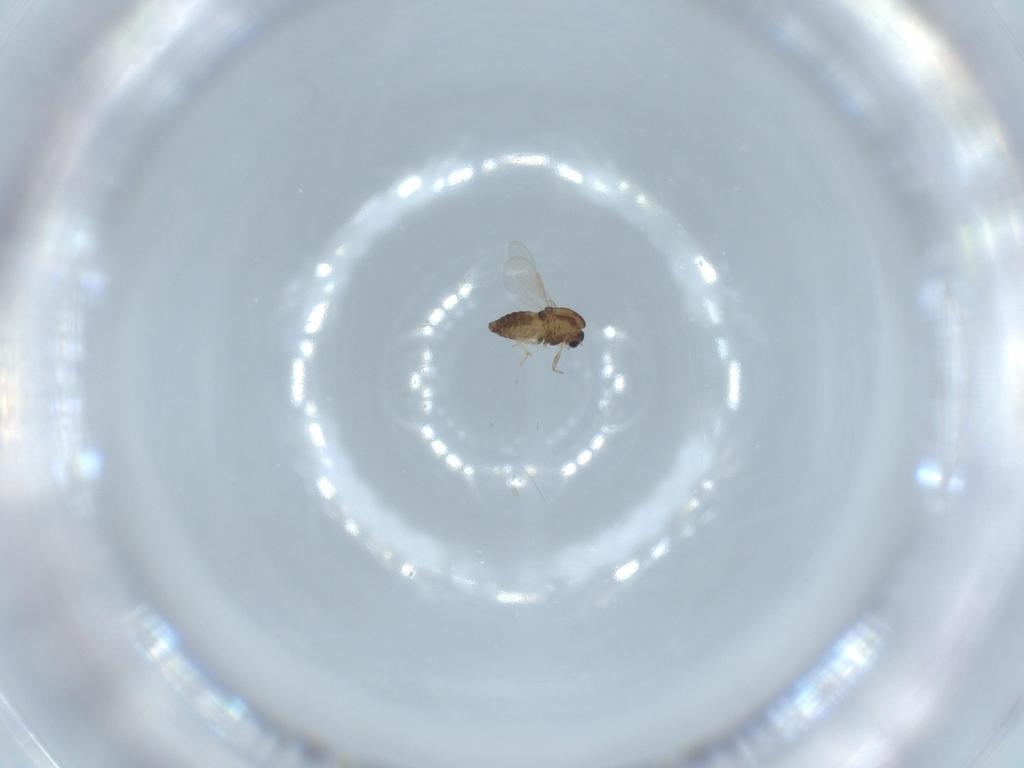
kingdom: Animalia
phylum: Arthropoda
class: Insecta
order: Diptera
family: Chironomidae
